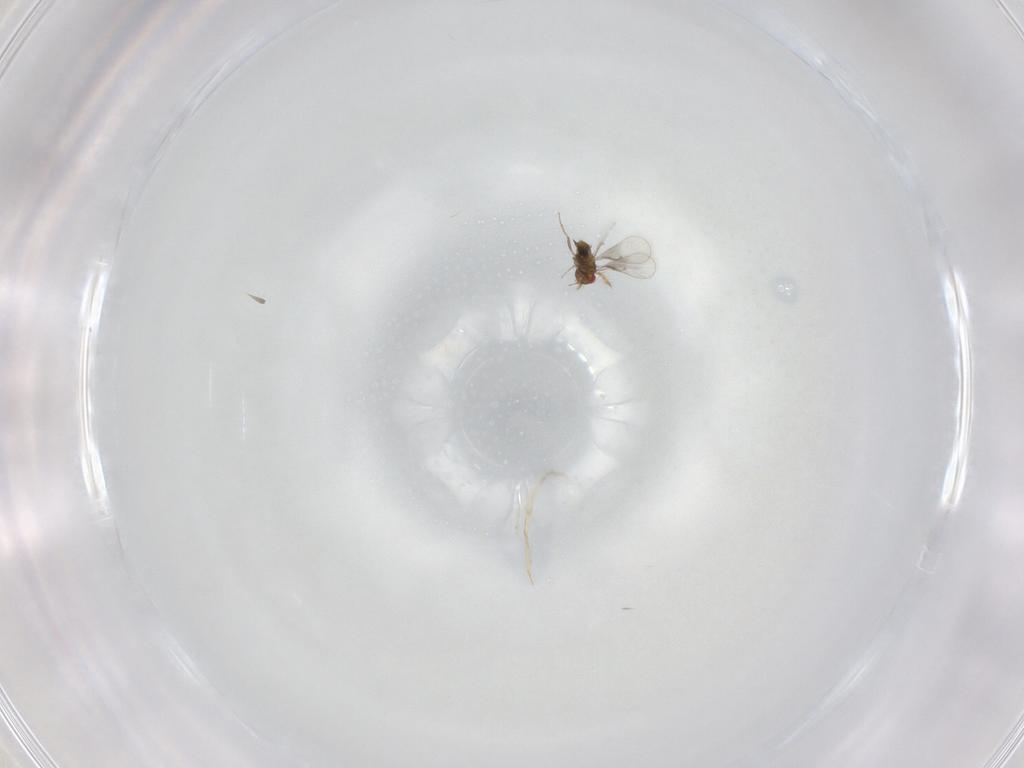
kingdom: Animalia
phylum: Arthropoda
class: Insecta
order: Hymenoptera
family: Trichogrammatidae
